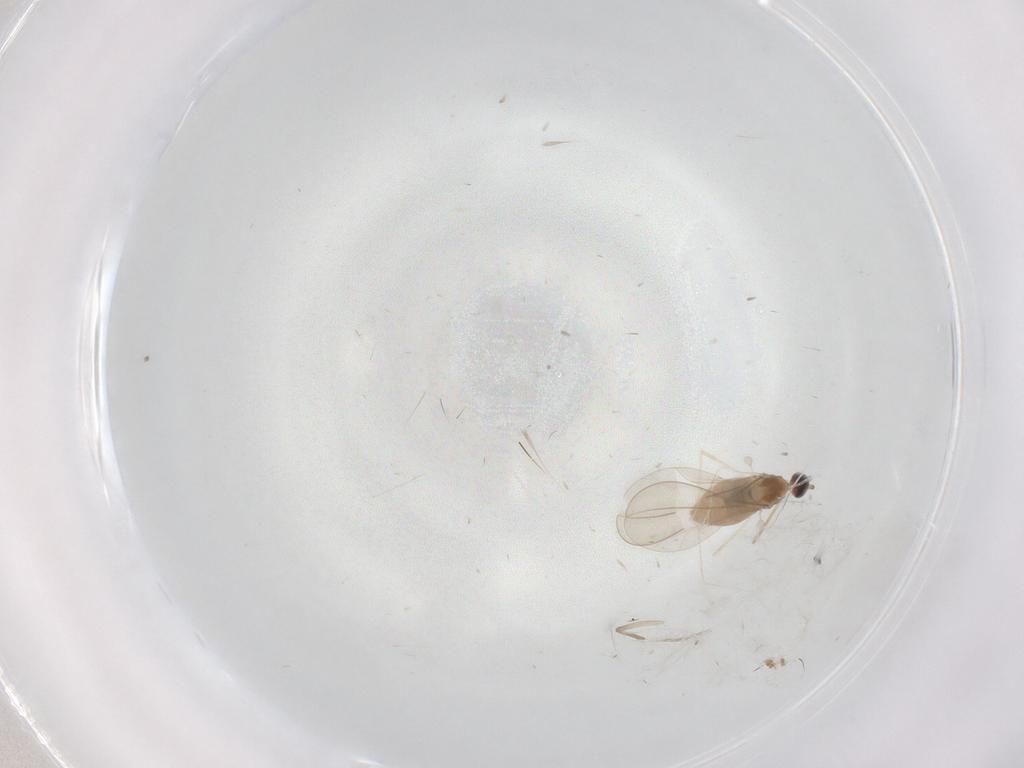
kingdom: Animalia
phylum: Arthropoda
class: Insecta
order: Diptera
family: Cecidomyiidae
